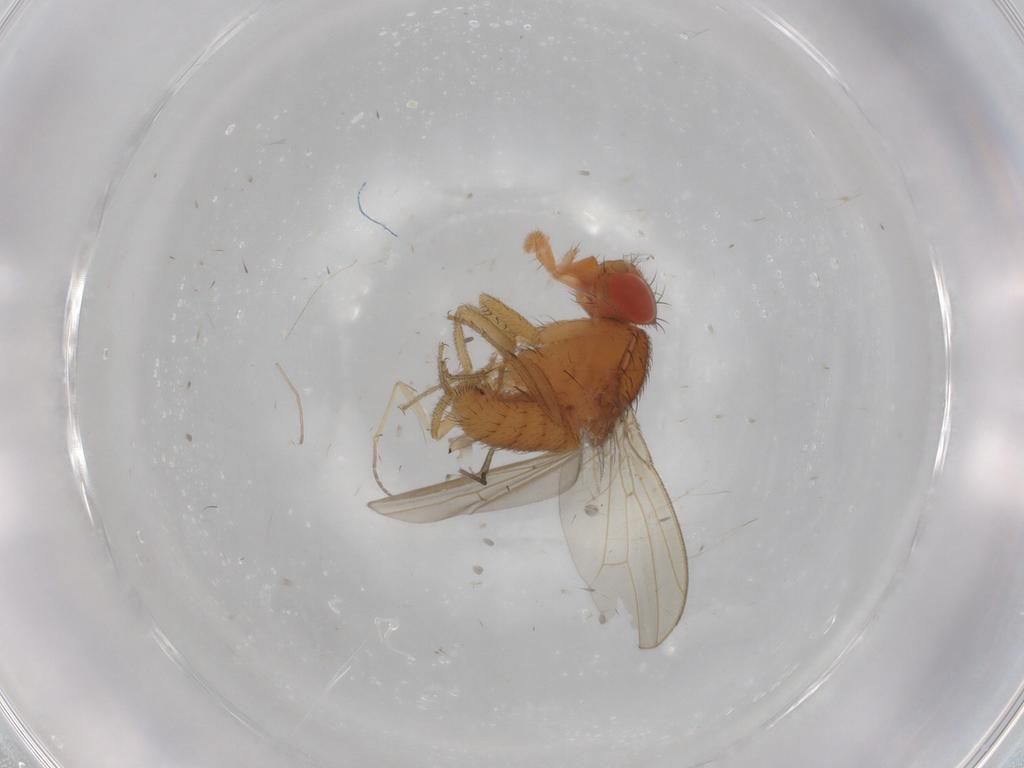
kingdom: Animalia
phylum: Arthropoda
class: Insecta
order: Diptera
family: Drosophilidae
